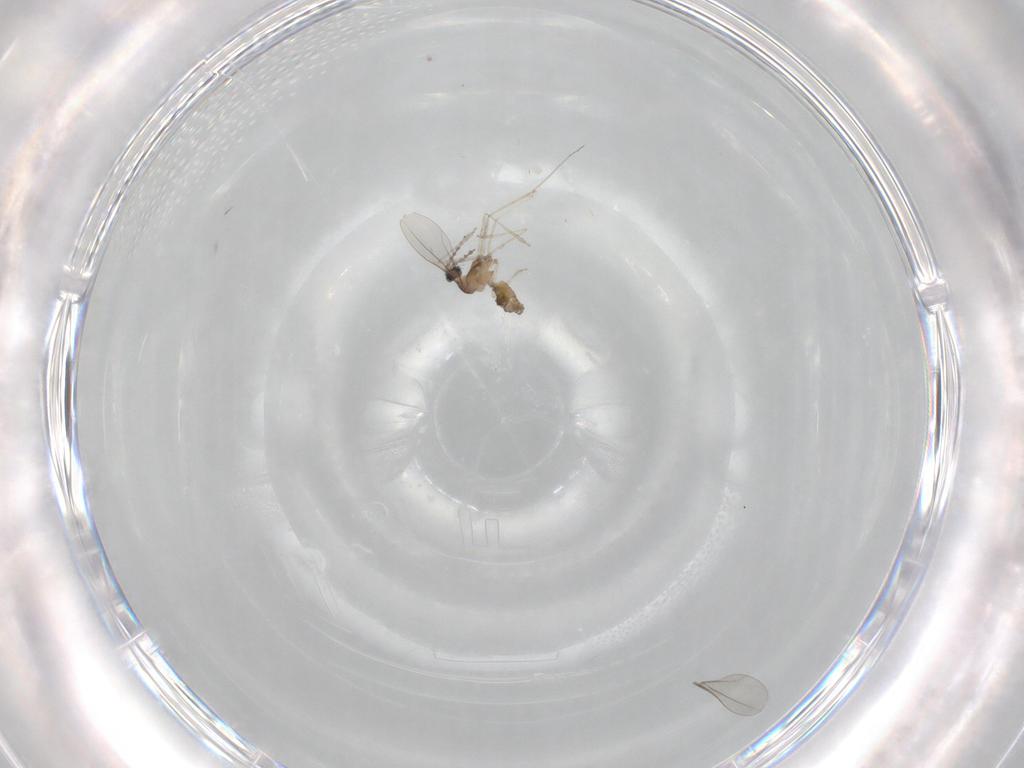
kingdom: Animalia
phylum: Arthropoda
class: Insecta
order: Diptera
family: Cecidomyiidae
